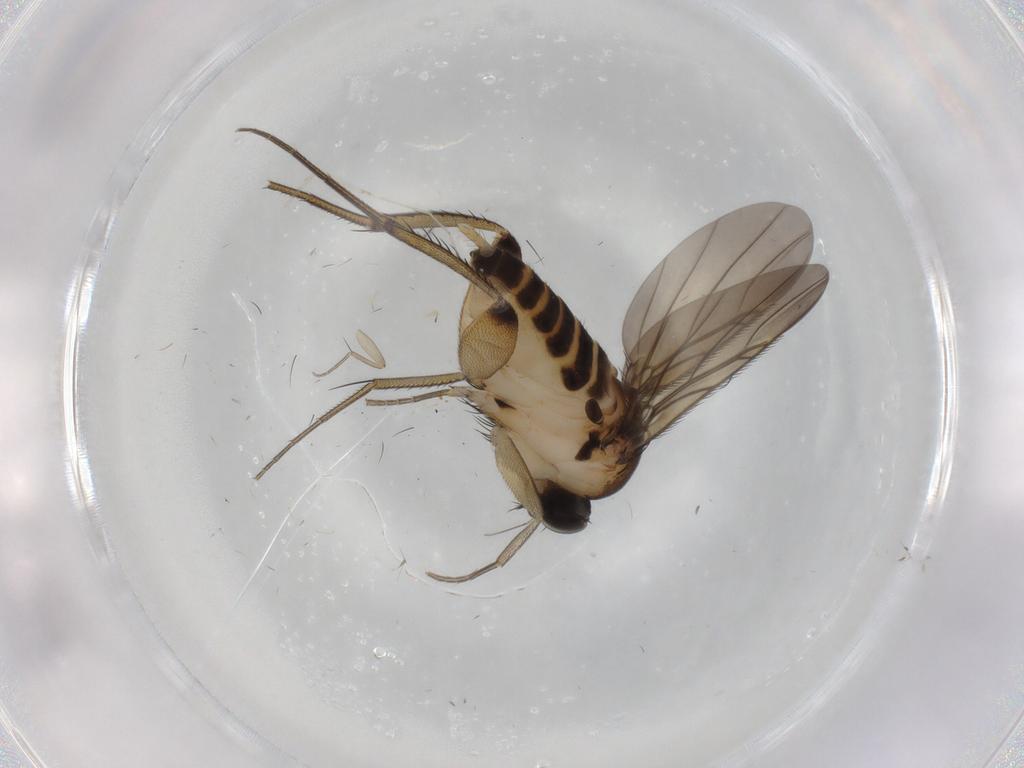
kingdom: Animalia
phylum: Arthropoda
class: Insecta
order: Diptera
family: Phoridae
